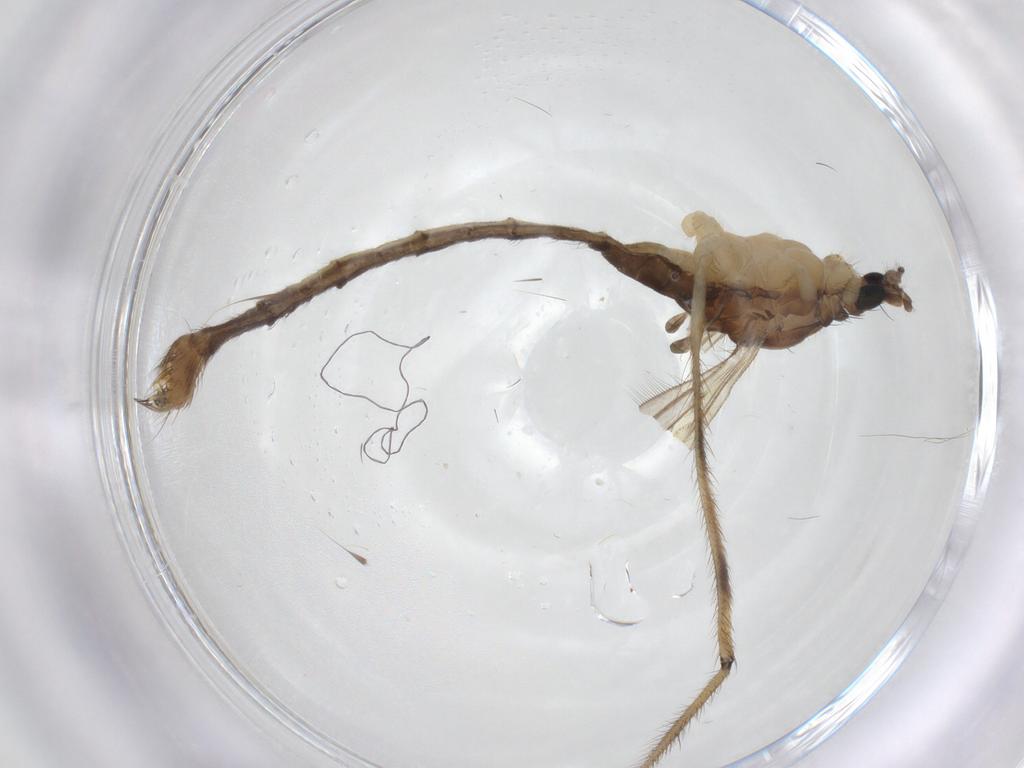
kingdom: Animalia
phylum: Arthropoda
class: Insecta
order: Diptera
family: Limoniidae
